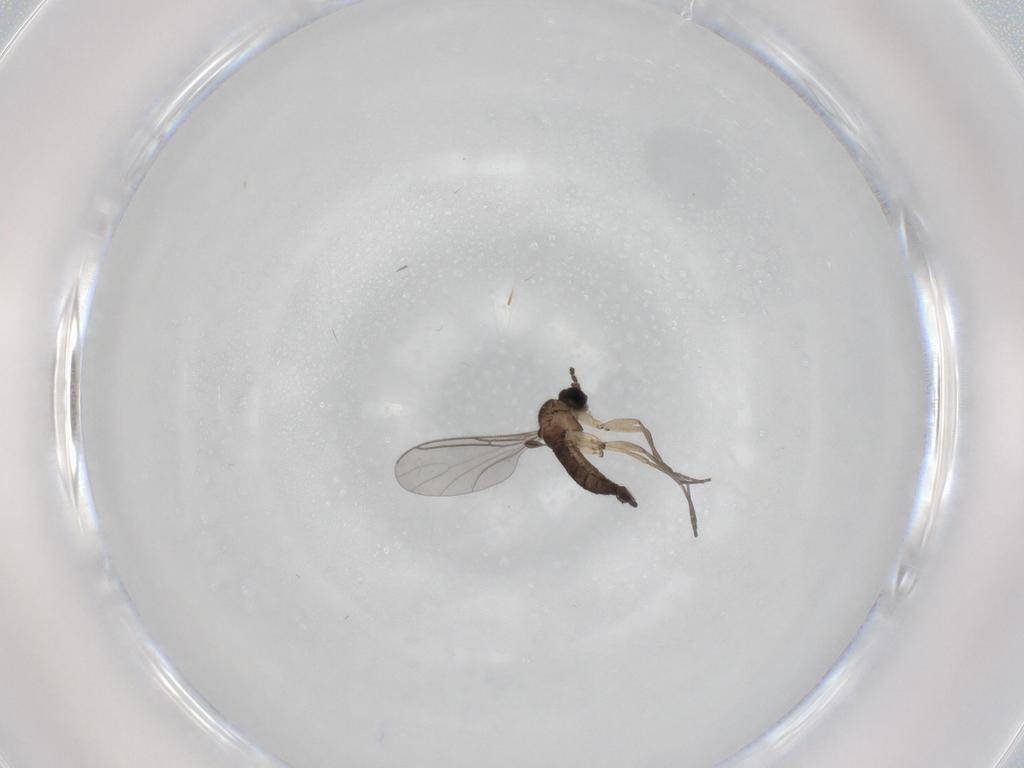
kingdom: Animalia
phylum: Arthropoda
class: Insecta
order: Diptera
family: Sciaridae
